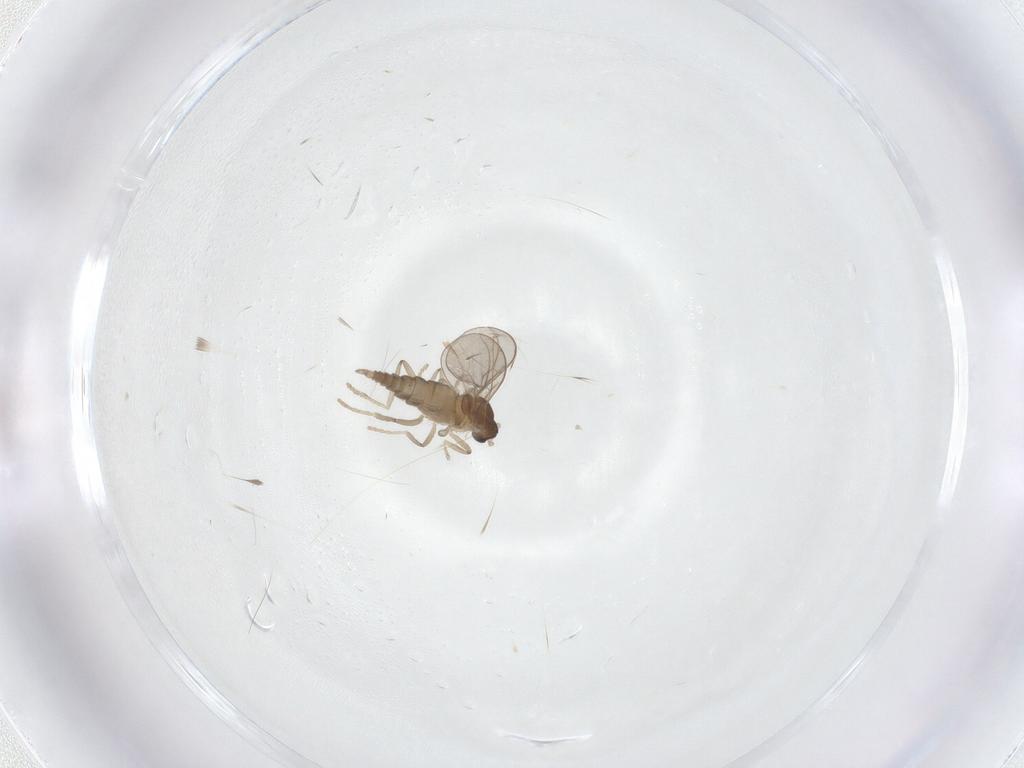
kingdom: Animalia
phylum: Arthropoda
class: Insecta
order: Diptera
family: Cecidomyiidae
